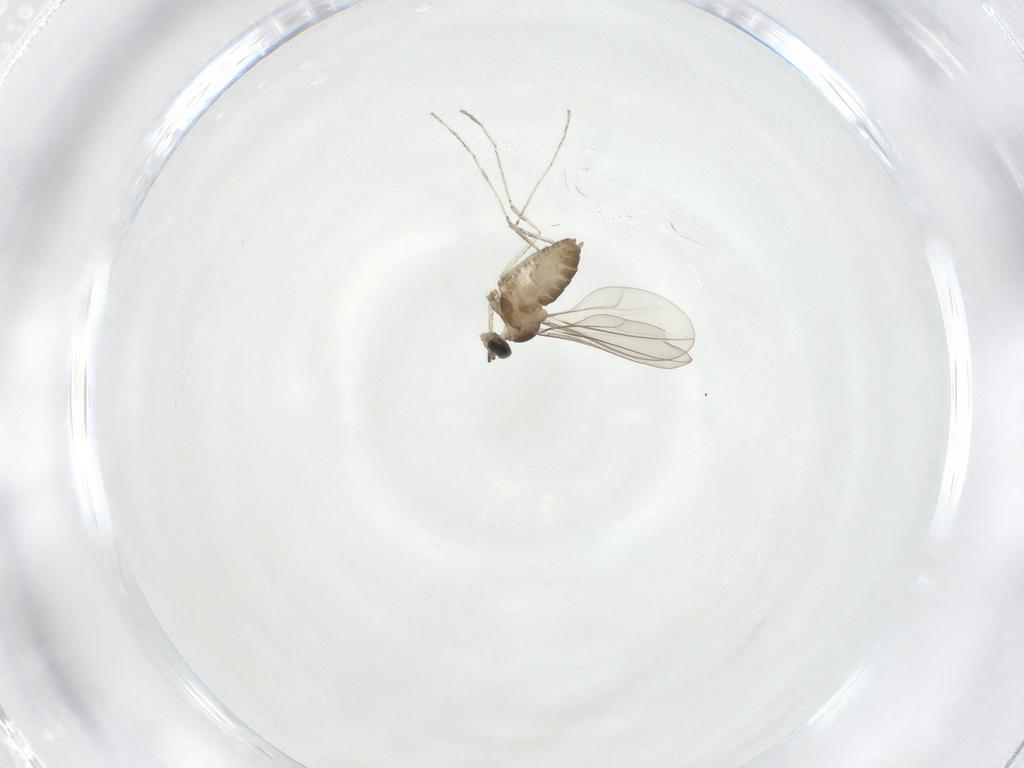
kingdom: Animalia
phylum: Arthropoda
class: Insecta
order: Diptera
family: Cecidomyiidae
